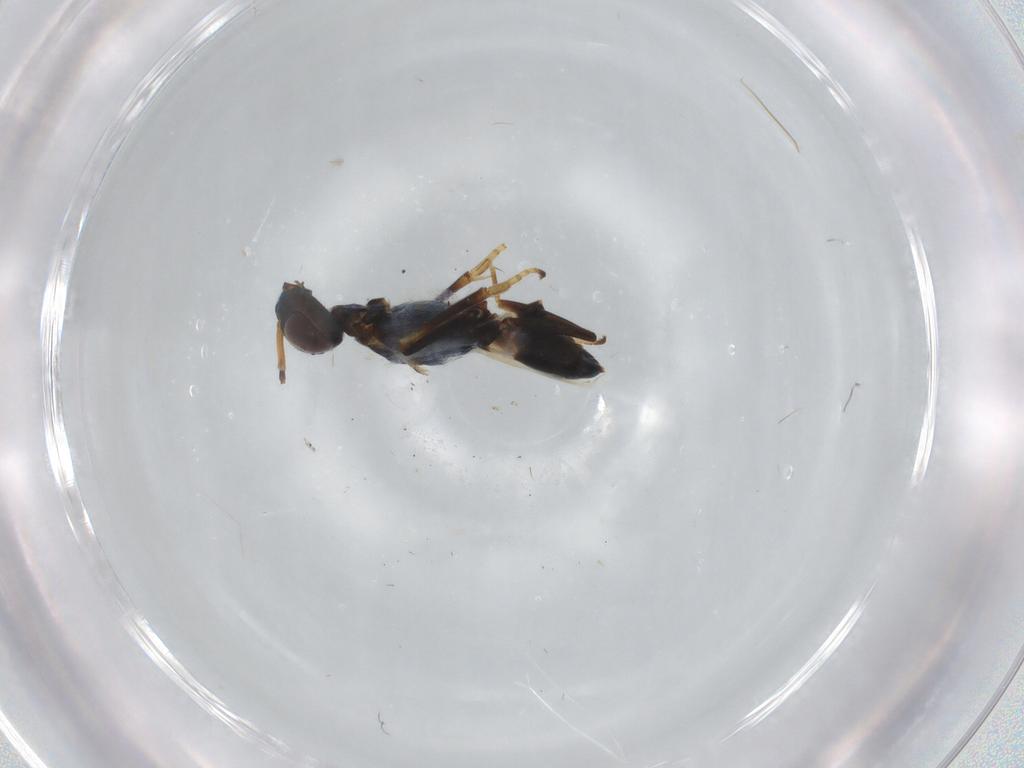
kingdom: Animalia
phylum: Arthropoda
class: Insecta
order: Hymenoptera
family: Eupelmidae
